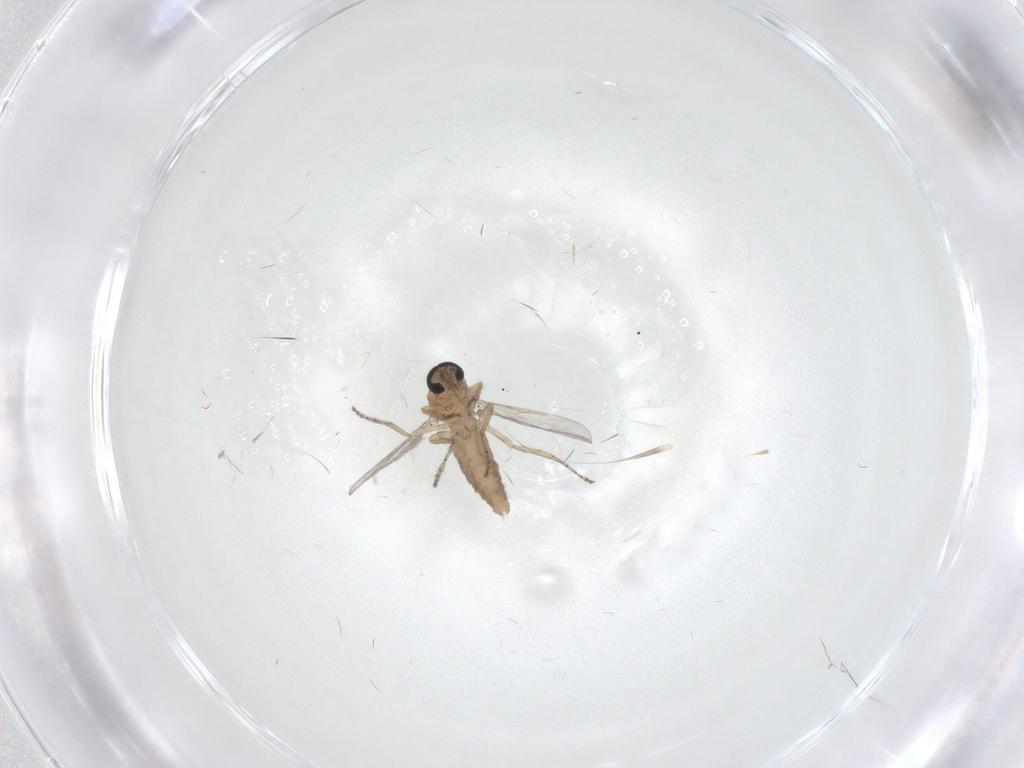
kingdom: Animalia
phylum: Arthropoda
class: Insecta
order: Diptera
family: Ceratopogonidae
